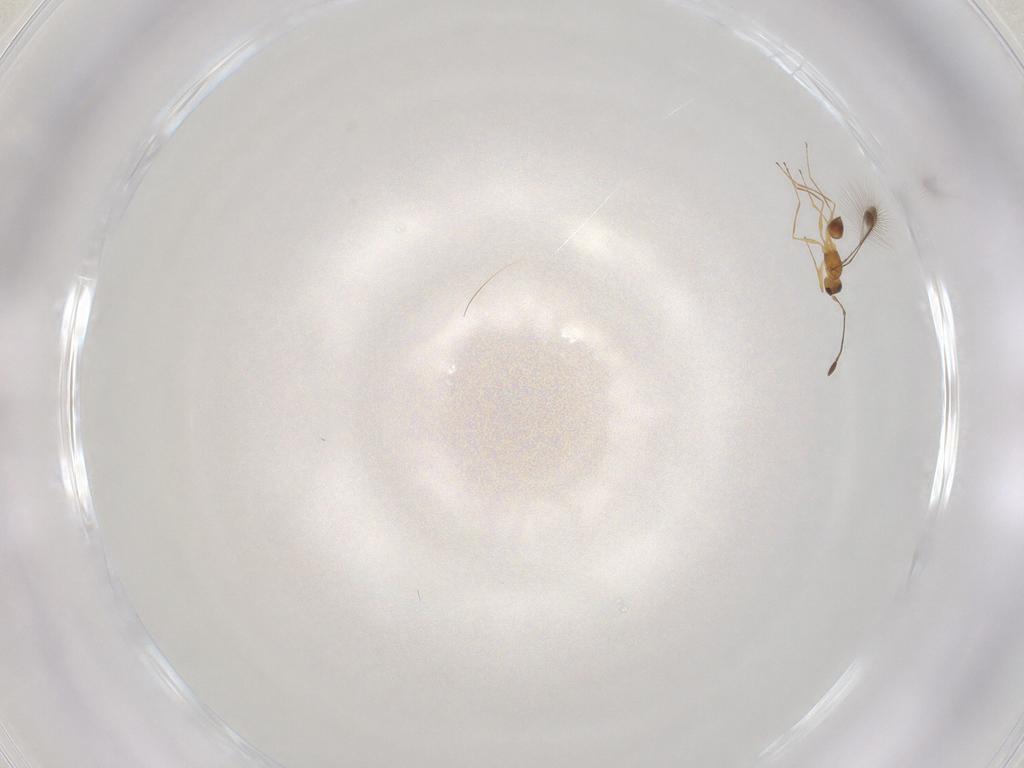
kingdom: Animalia
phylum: Arthropoda
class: Insecta
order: Hymenoptera
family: Mymaridae
